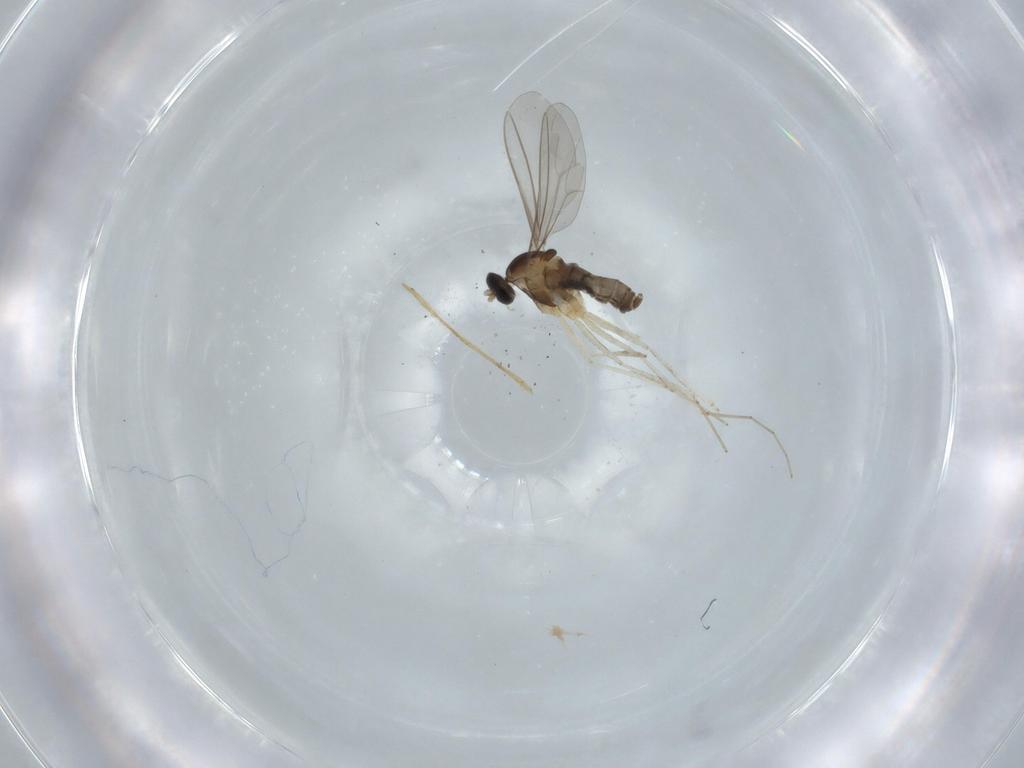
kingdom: Animalia
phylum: Arthropoda
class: Insecta
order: Diptera
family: Cecidomyiidae
